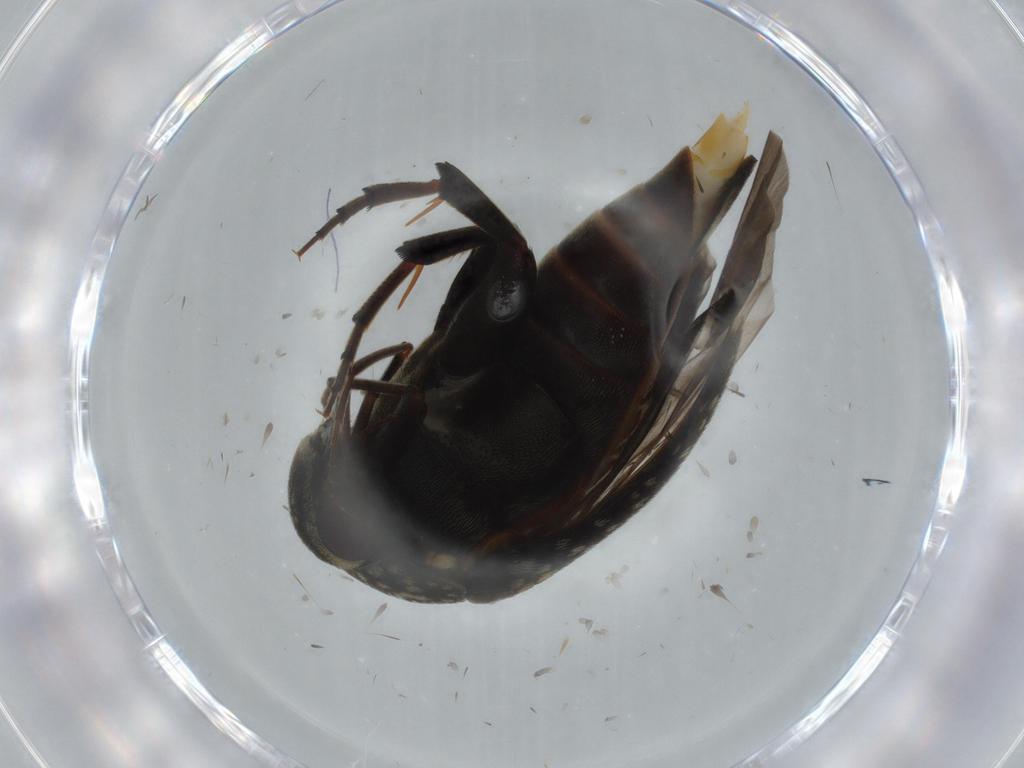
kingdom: Animalia
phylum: Arthropoda
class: Insecta
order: Coleoptera
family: Mordellidae
